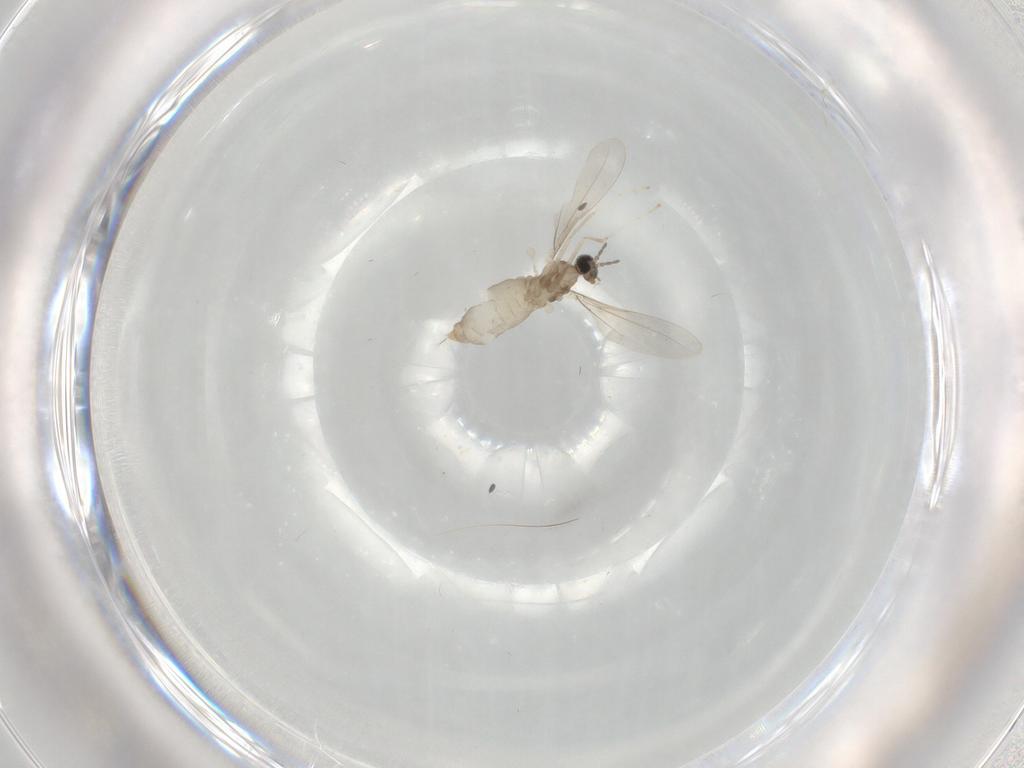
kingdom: Animalia
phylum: Arthropoda
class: Insecta
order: Diptera
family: Cecidomyiidae
